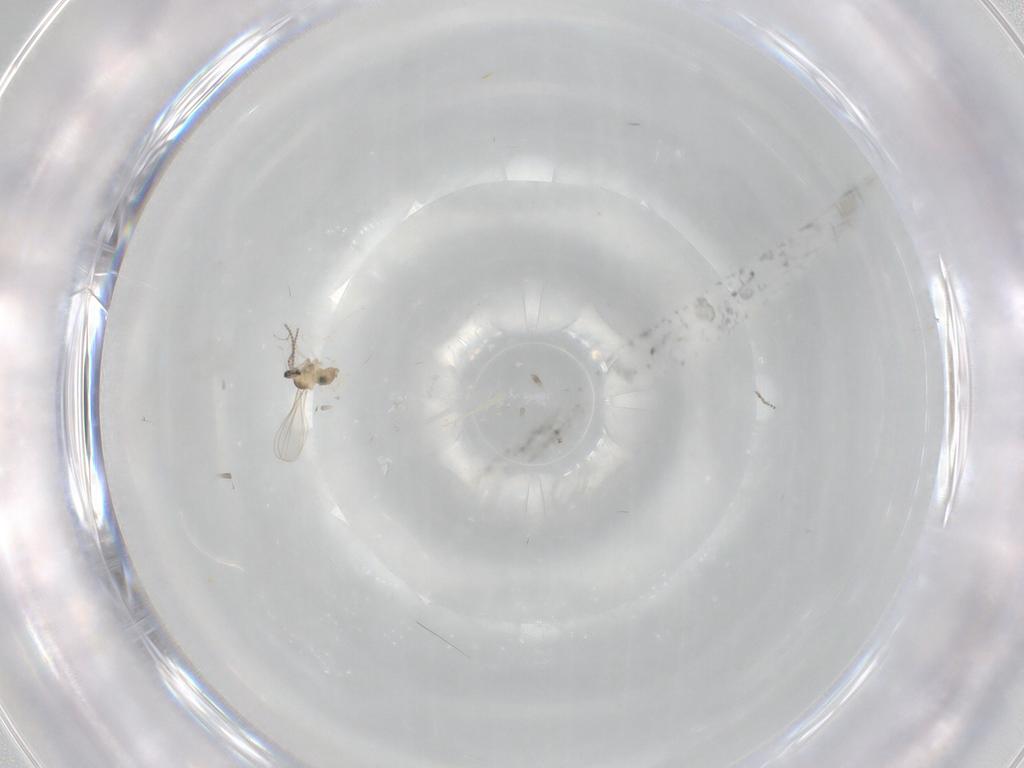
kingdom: Animalia
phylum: Arthropoda
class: Insecta
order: Diptera
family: Cecidomyiidae
